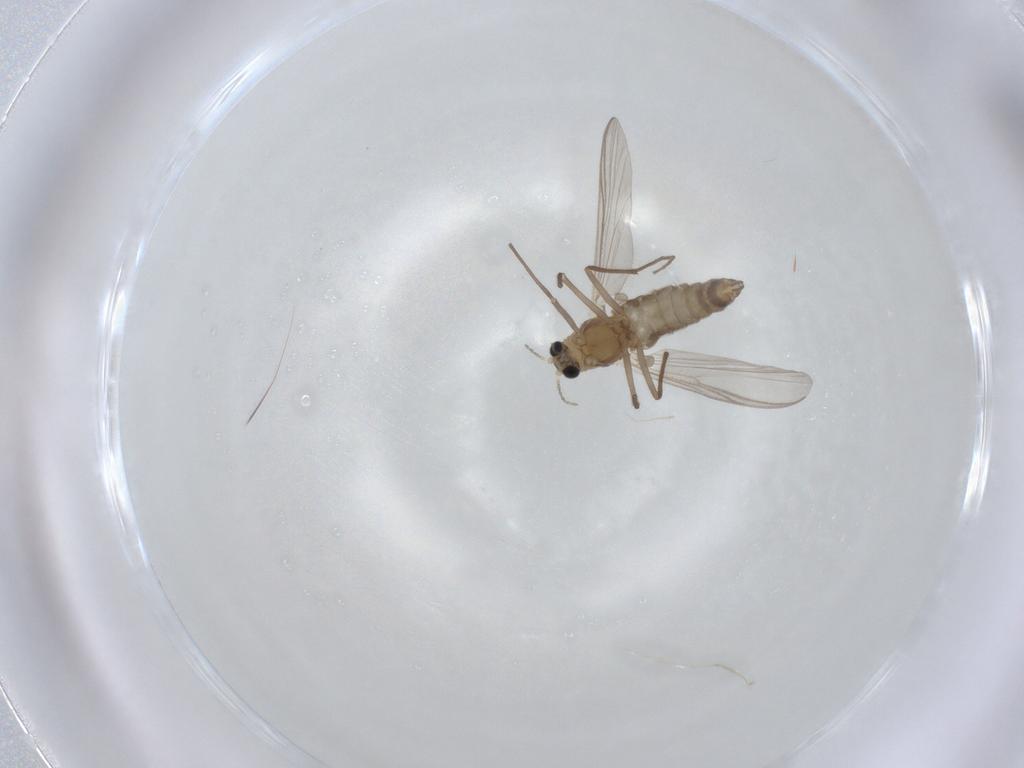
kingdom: Animalia
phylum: Arthropoda
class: Insecta
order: Diptera
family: Chironomidae
